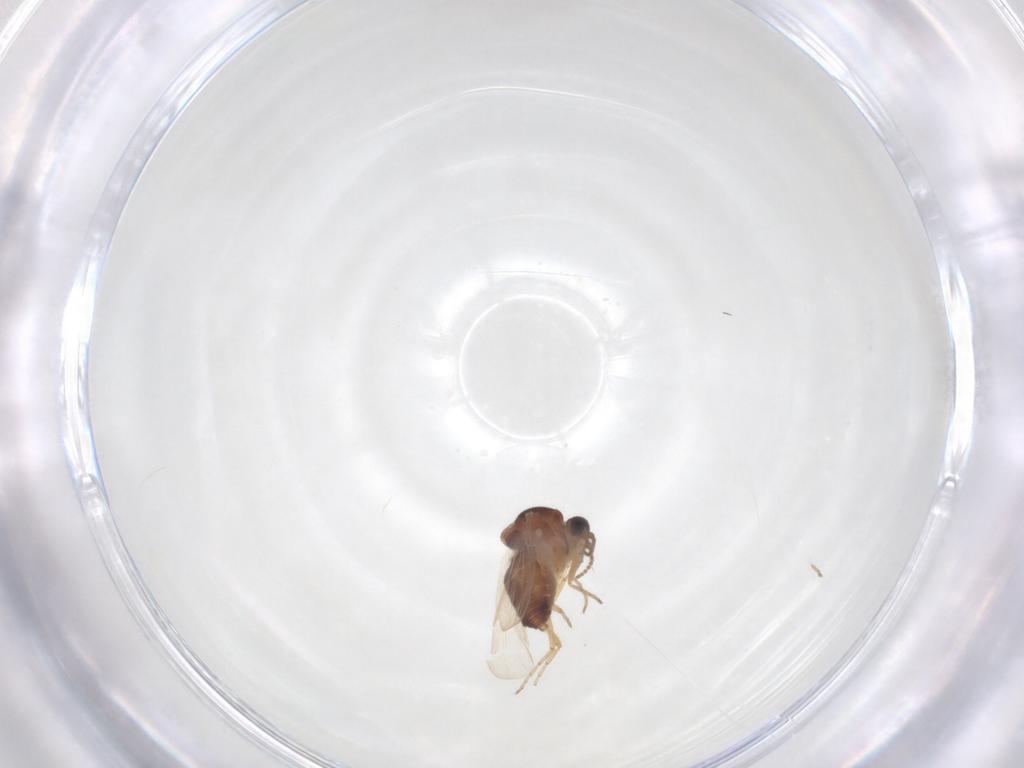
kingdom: Animalia
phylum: Arthropoda
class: Insecta
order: Diptera
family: Ceratopogonidae
